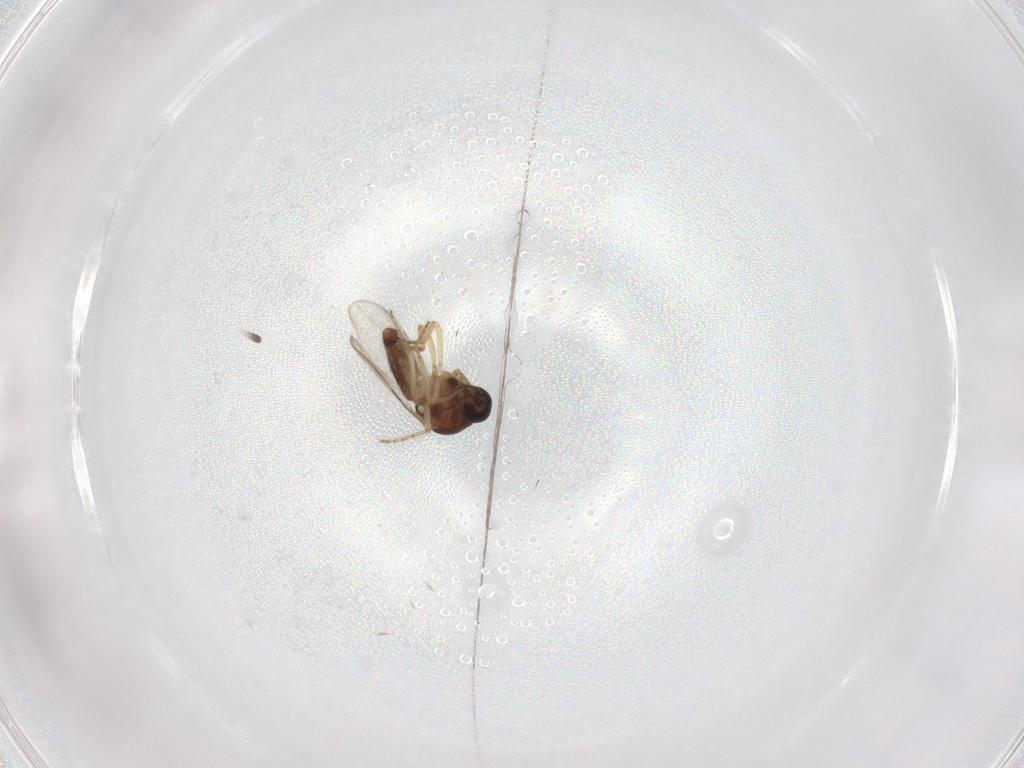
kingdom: Animalia
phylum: Arthropoda
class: Insecta
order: Diptera
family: Ceratopogonidae
